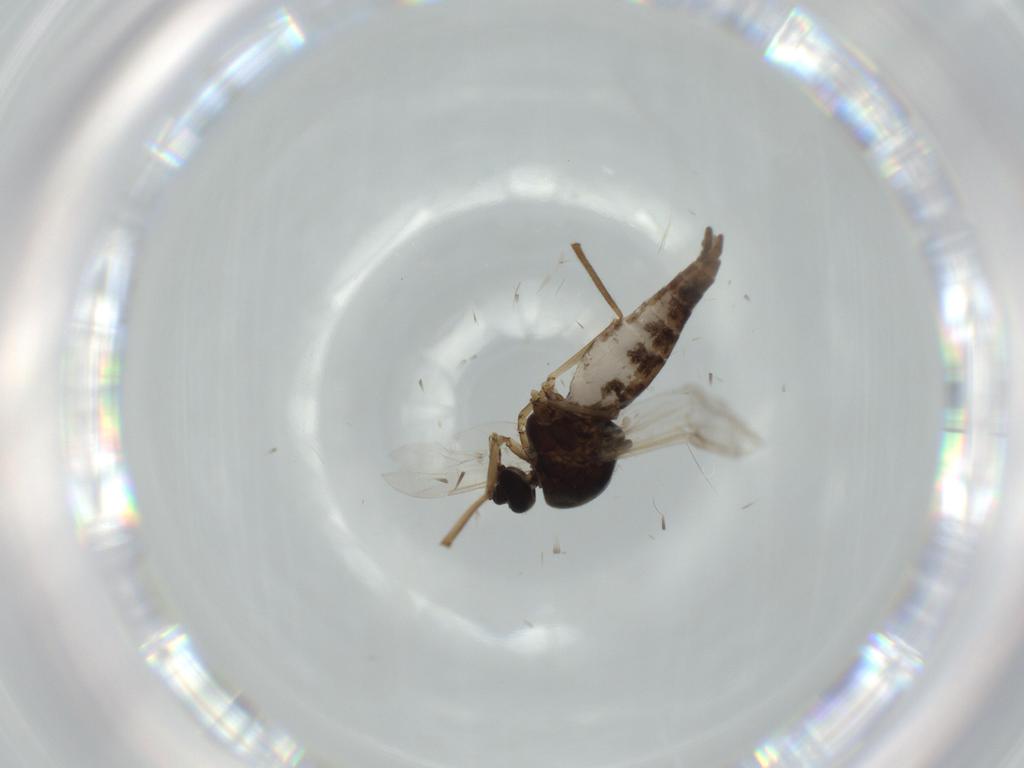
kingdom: Animalia
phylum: Arthropoda
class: Insecta
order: Diptera
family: Ceratopogonidae
